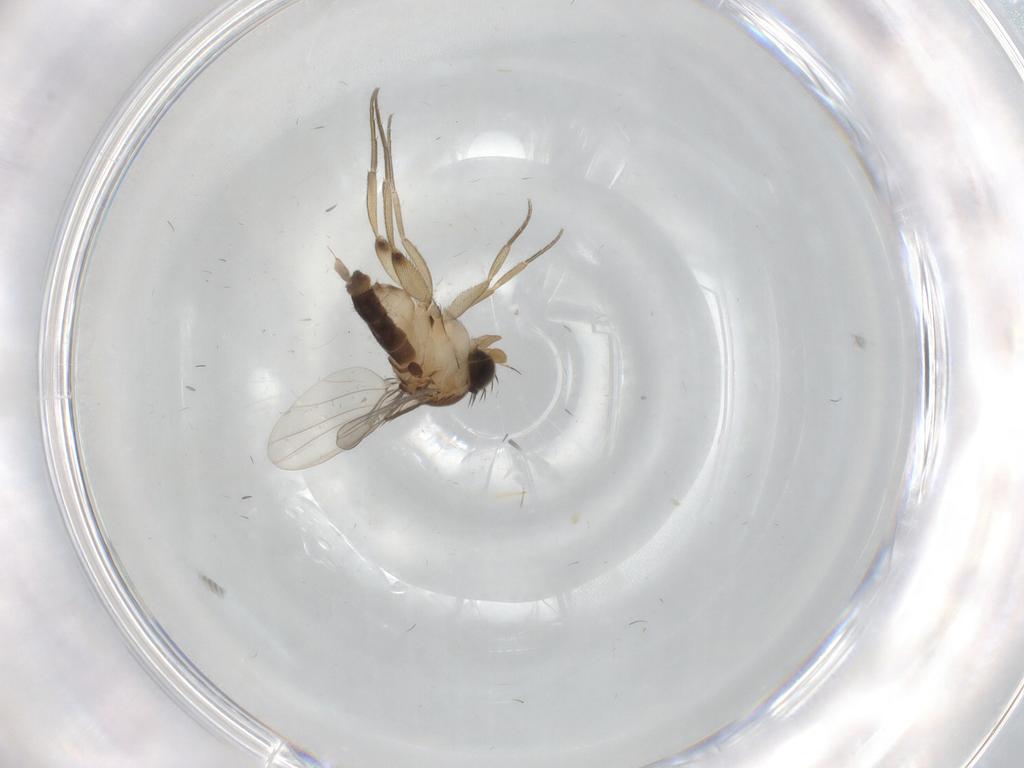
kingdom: Animalia
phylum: Arthropoda
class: Insecta
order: Diptera
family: Phoridae
